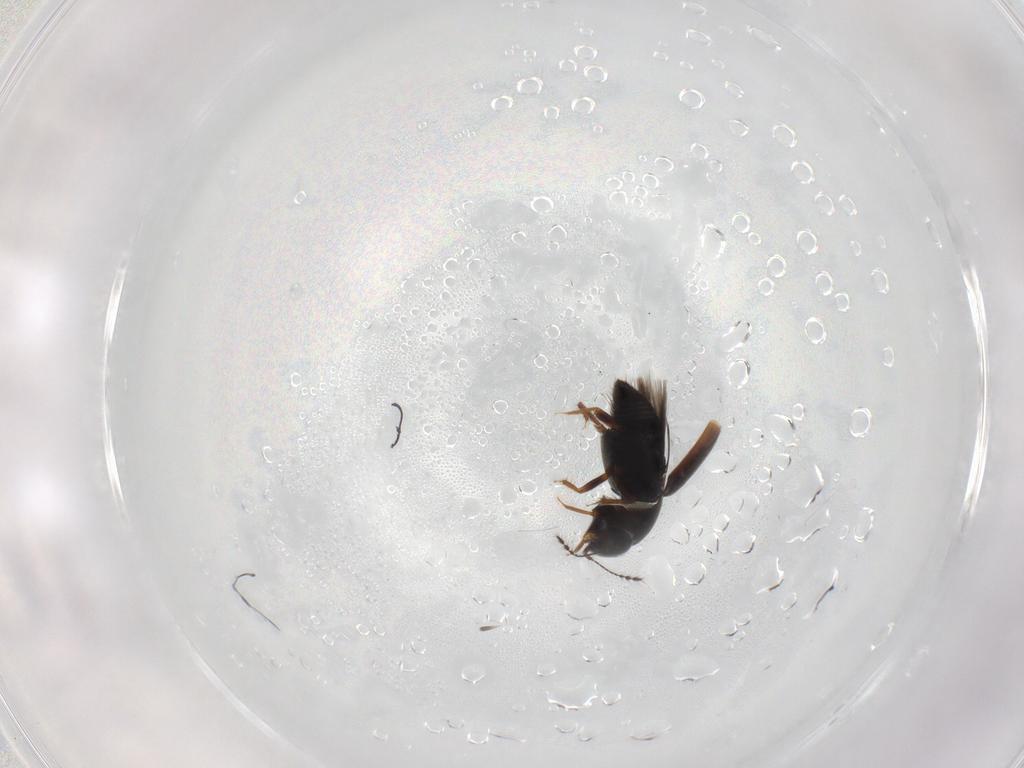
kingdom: Animalia
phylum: Arthropoda
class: Insecta
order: Coleoptera
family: Ptiliidae
